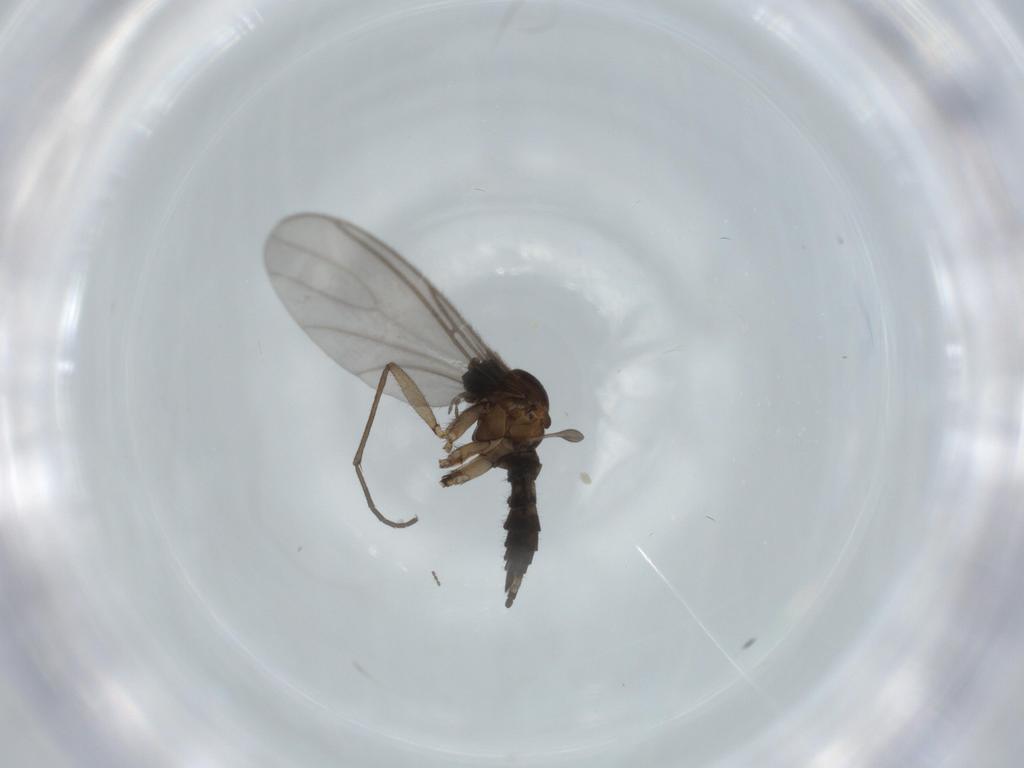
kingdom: Animalia
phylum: Arthropoda
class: Insecta
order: Diptera
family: Sciaridae
